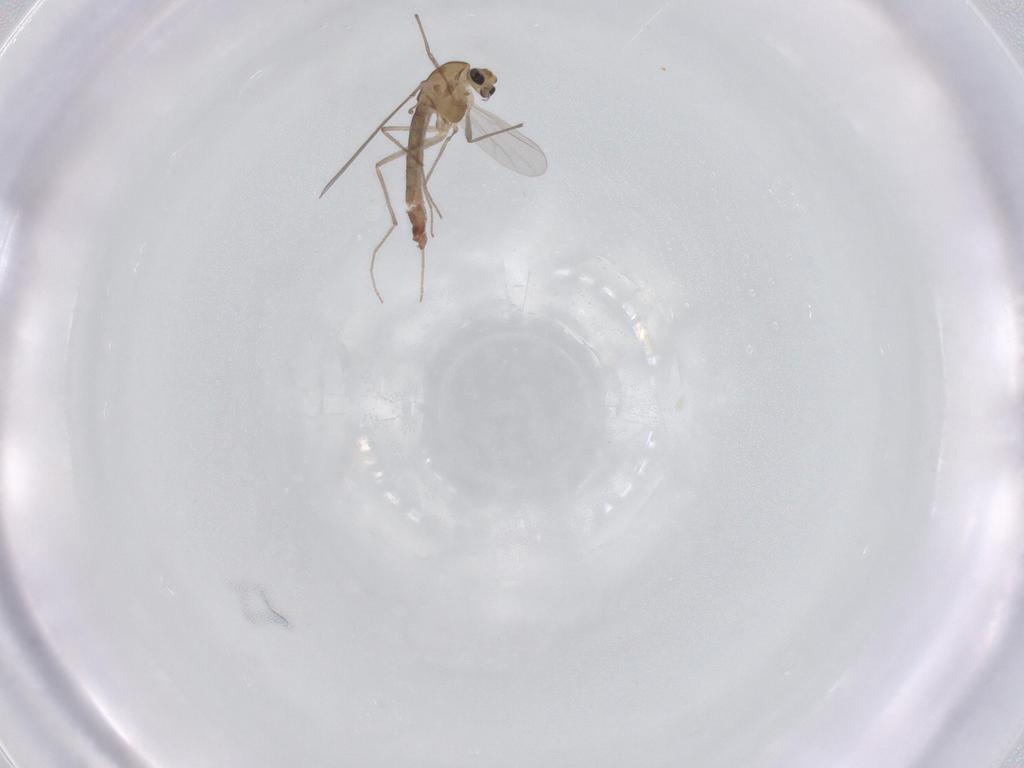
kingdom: Animalia
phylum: Arthropoda
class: Insecta
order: Diptera
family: Chironomidae
